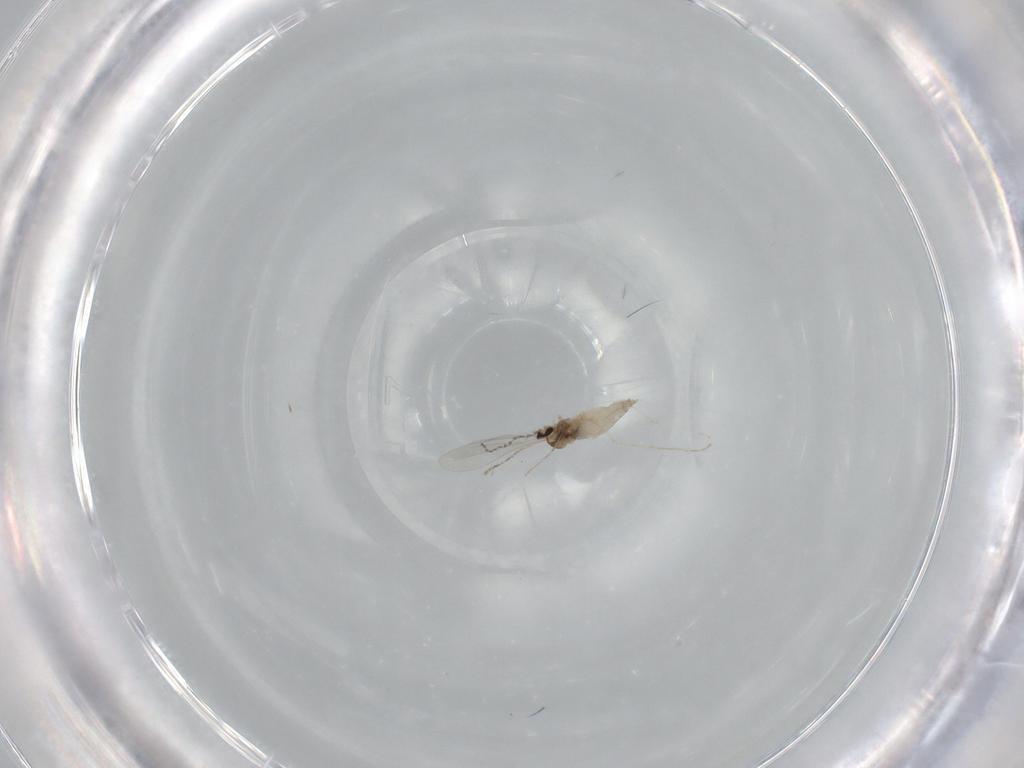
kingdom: Animalia
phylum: Arthropoda
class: Insecta
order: Diptera
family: Cecidomyiidae
